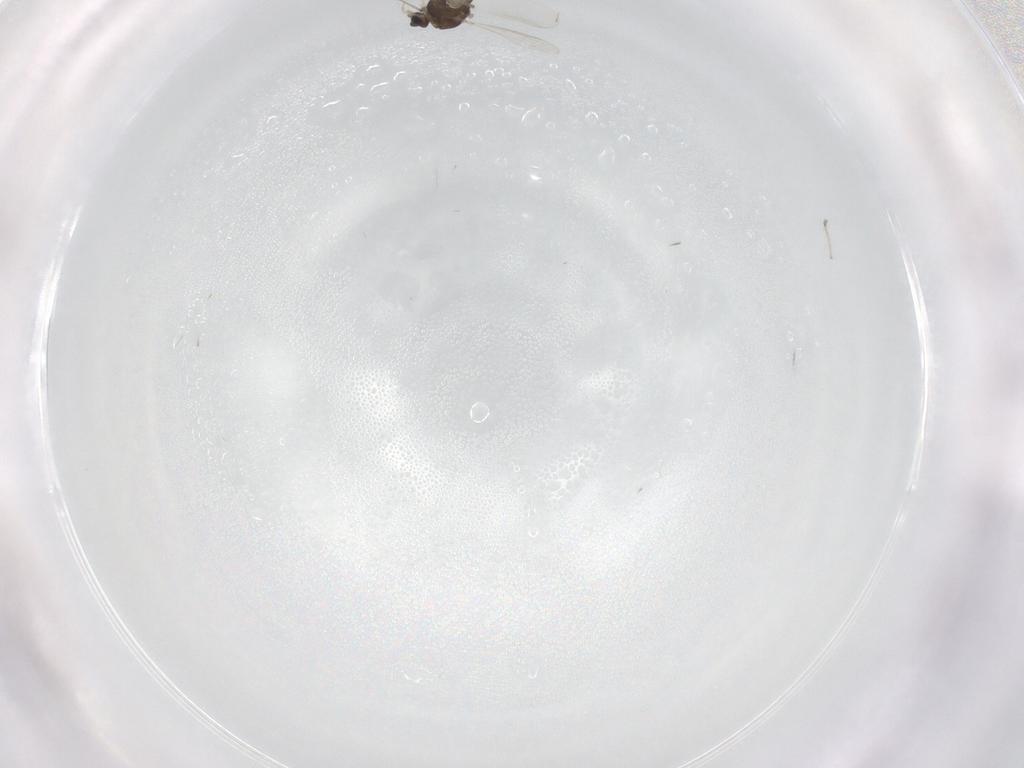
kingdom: Animalia
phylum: Arthropoda
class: Insecta
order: Diptera
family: Chironomidae
